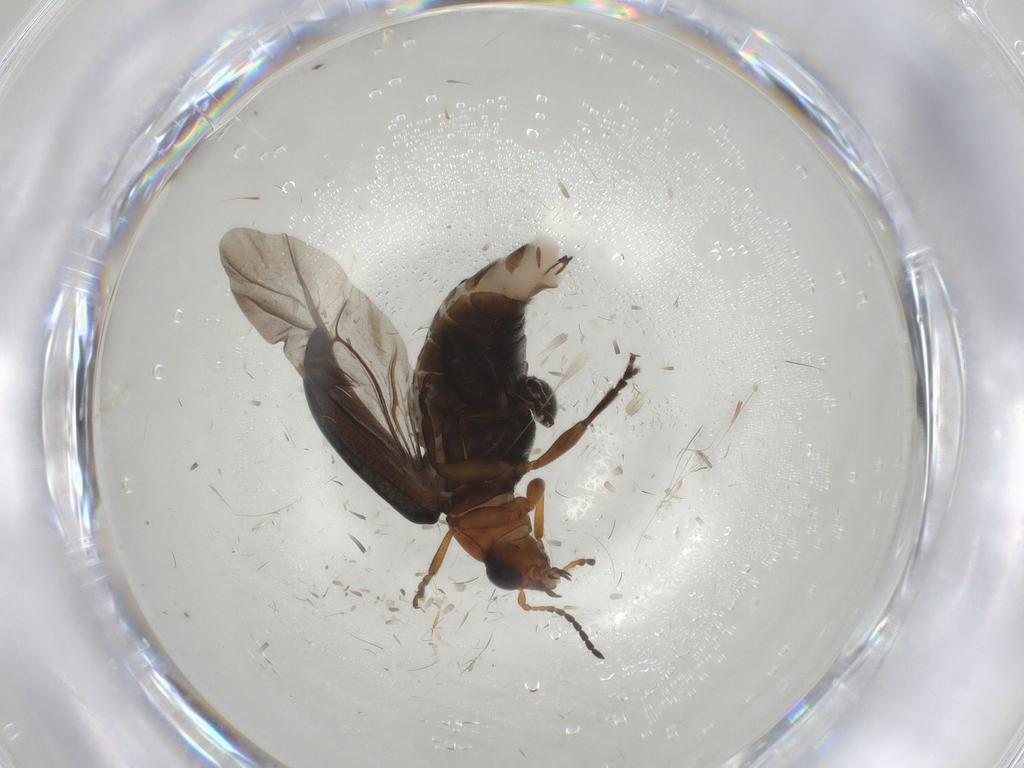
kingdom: Animalia
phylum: Arthropoda
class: Insecta
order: Coleoptera
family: Chrysomelidae
